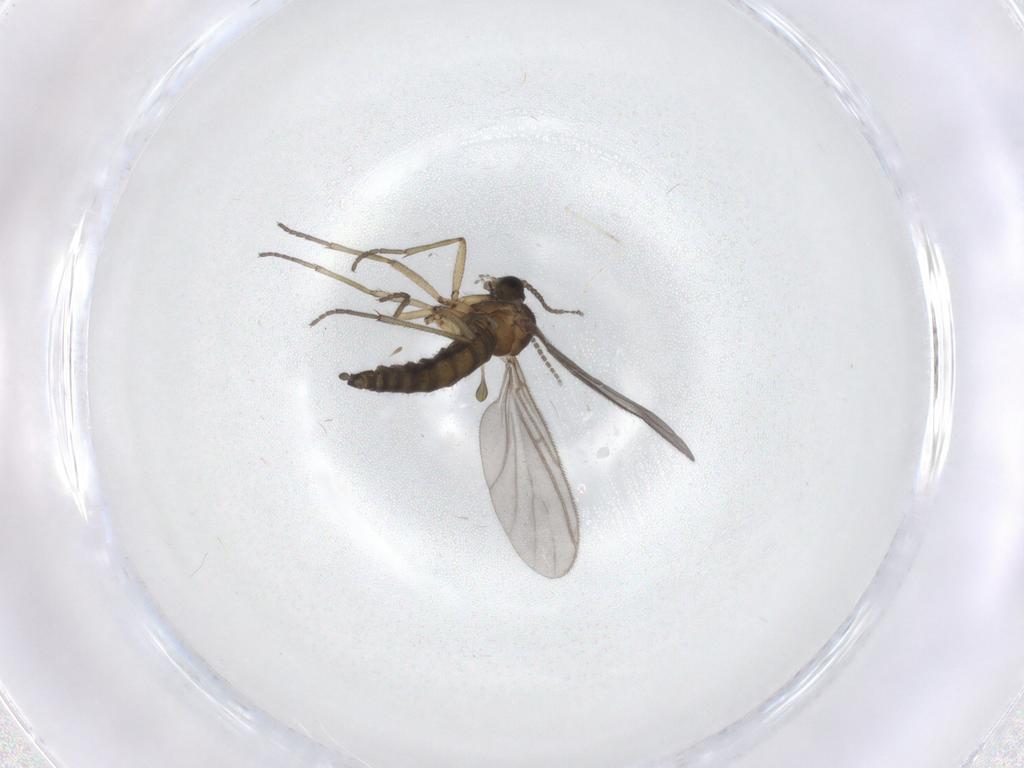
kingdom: Animalia
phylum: Arthropoda
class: Insecta
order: Diptera
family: Sciaridae
